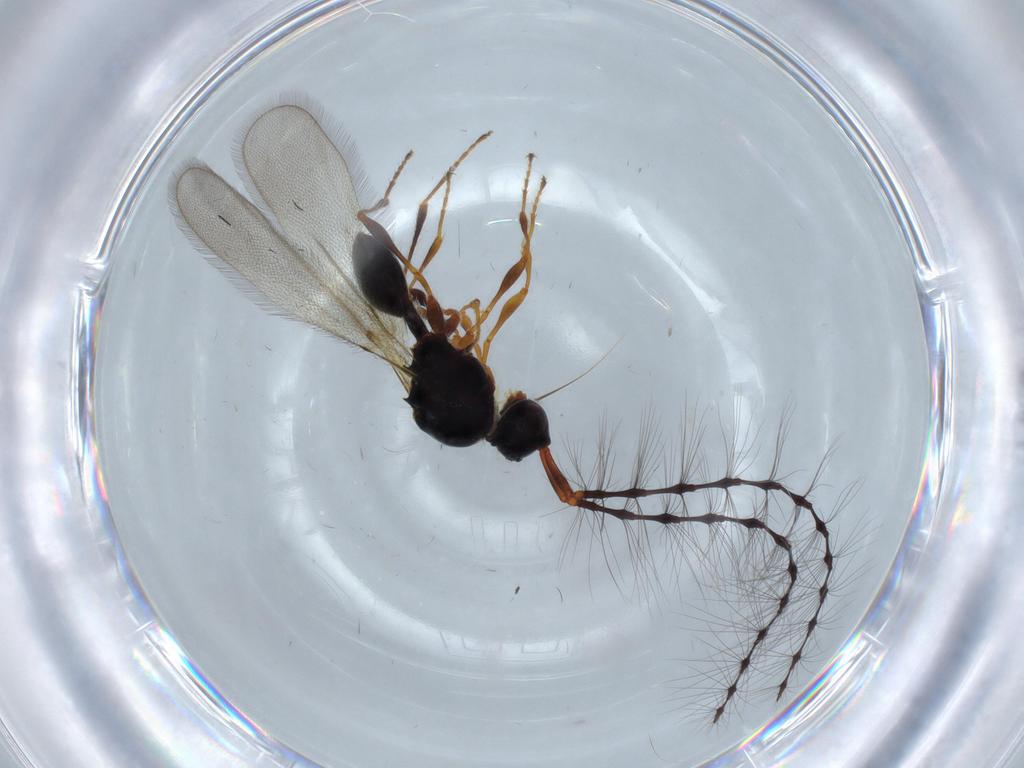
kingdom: Animalia
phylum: Arthropoda
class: Insecta
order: Hymenoptera
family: Diapriidae
